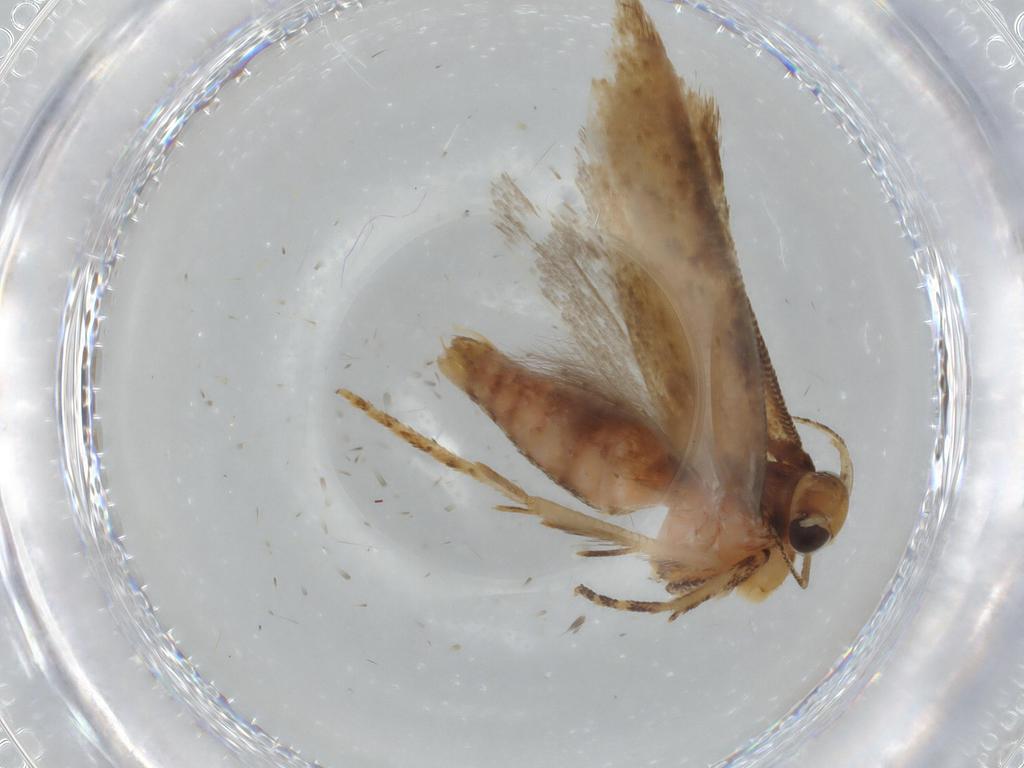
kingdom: Animalia
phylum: Arthropoda
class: Insecta
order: Lepidoptera
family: Gelechiidae
